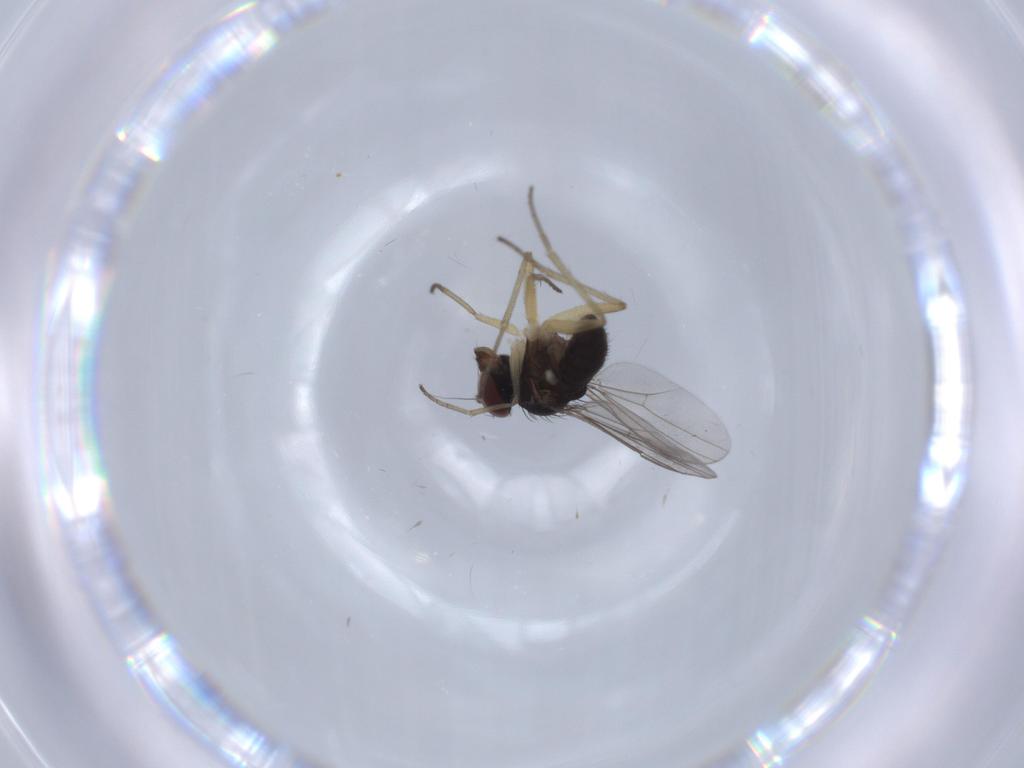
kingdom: Animalia
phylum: Arthropoda
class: Insecta
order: Diptera
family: Dolichopodidae
